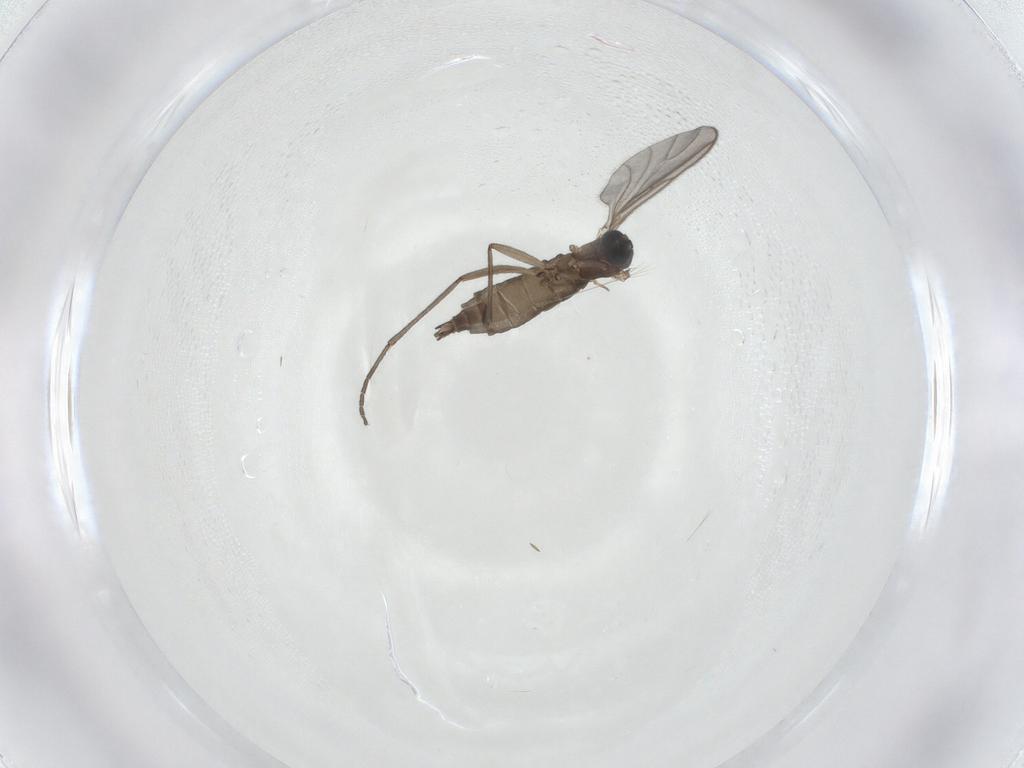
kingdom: Animalia
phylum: Arthropoda
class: Insecta
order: Diptera
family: Sciaridae
